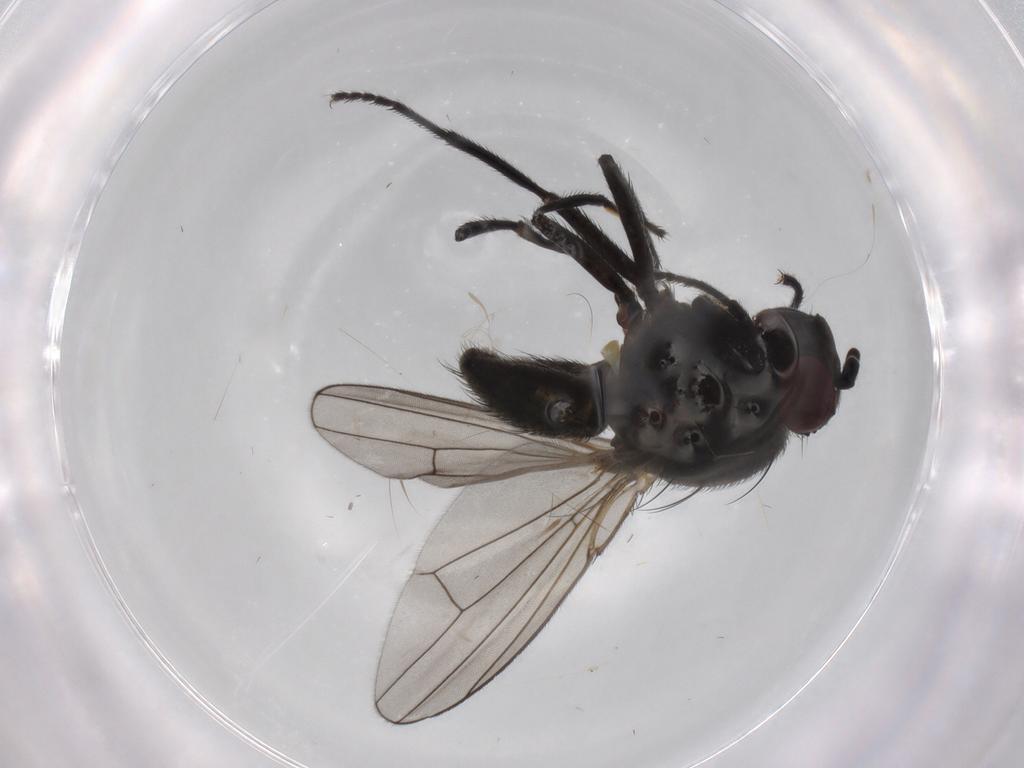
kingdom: Animalia
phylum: Arthropoda
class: Insecta
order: Diptera
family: Ephydridae
